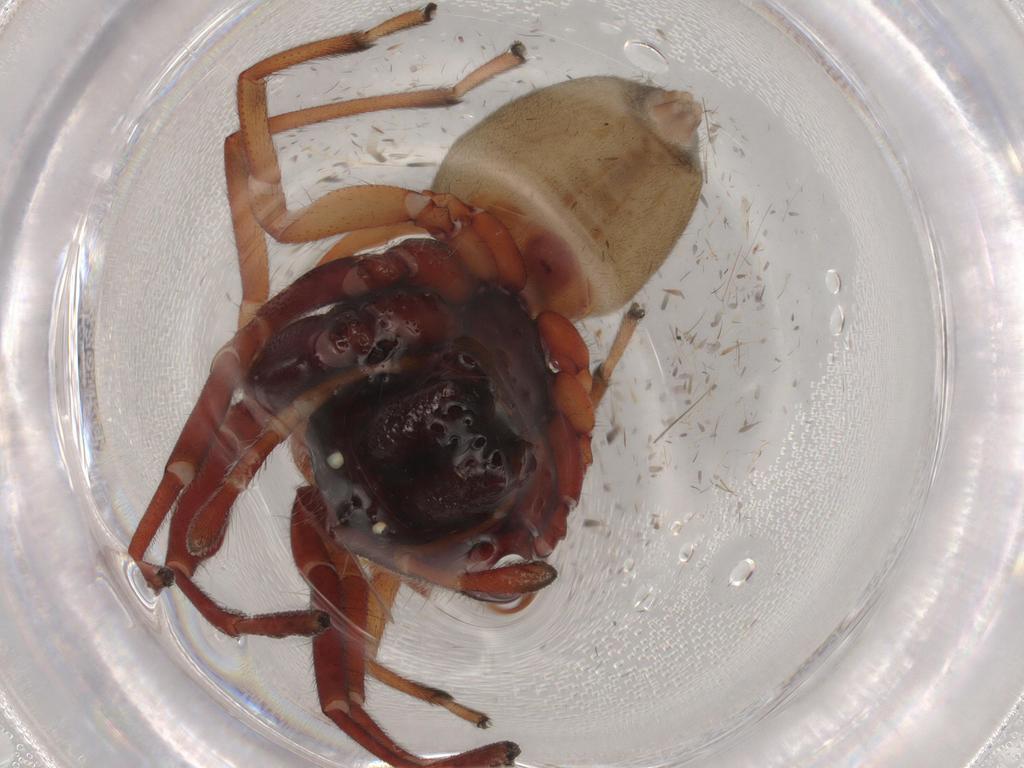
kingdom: Animalia
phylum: Arthropoda
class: Arachnida
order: Araneae
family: Trachelidae
